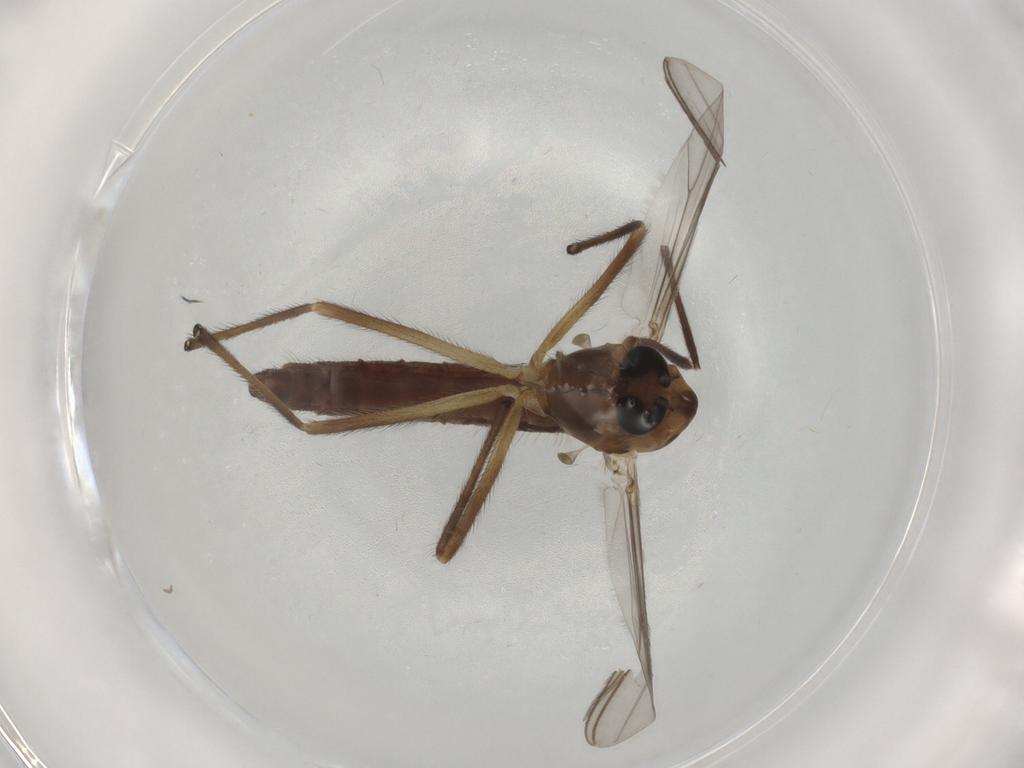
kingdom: Animalia
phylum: Arthropoda
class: Insecta
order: Diptera
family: Chironomidae
